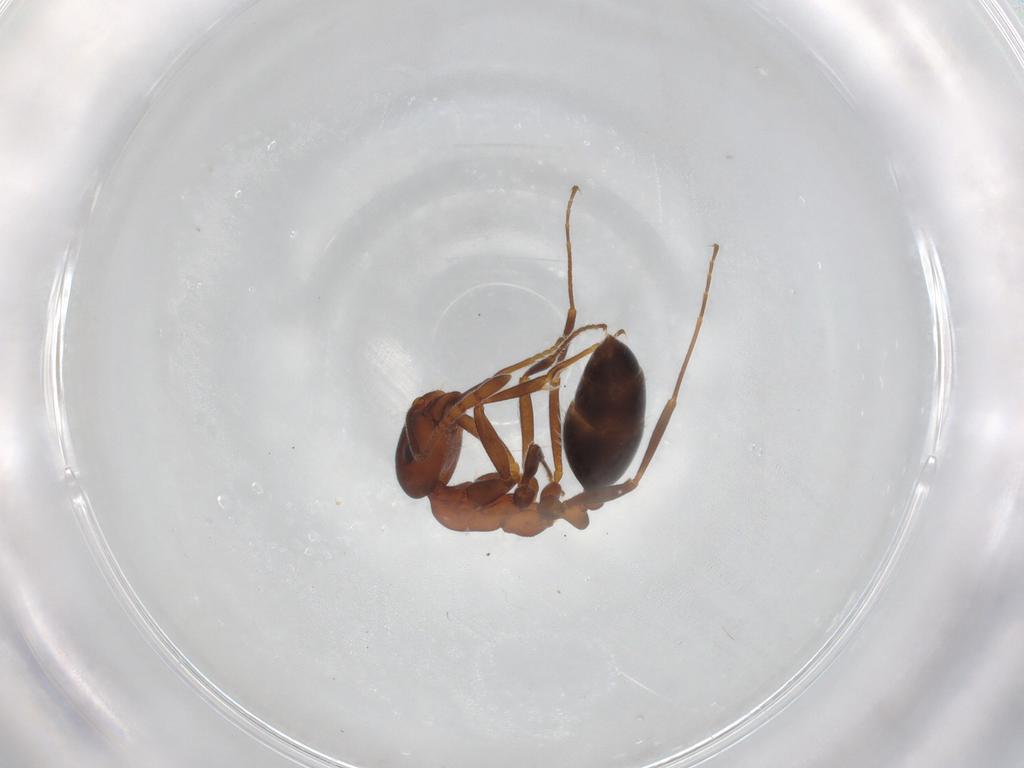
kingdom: Animalia
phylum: Arthropoda
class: Insecta
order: Hymenoptera
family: Formicidae
